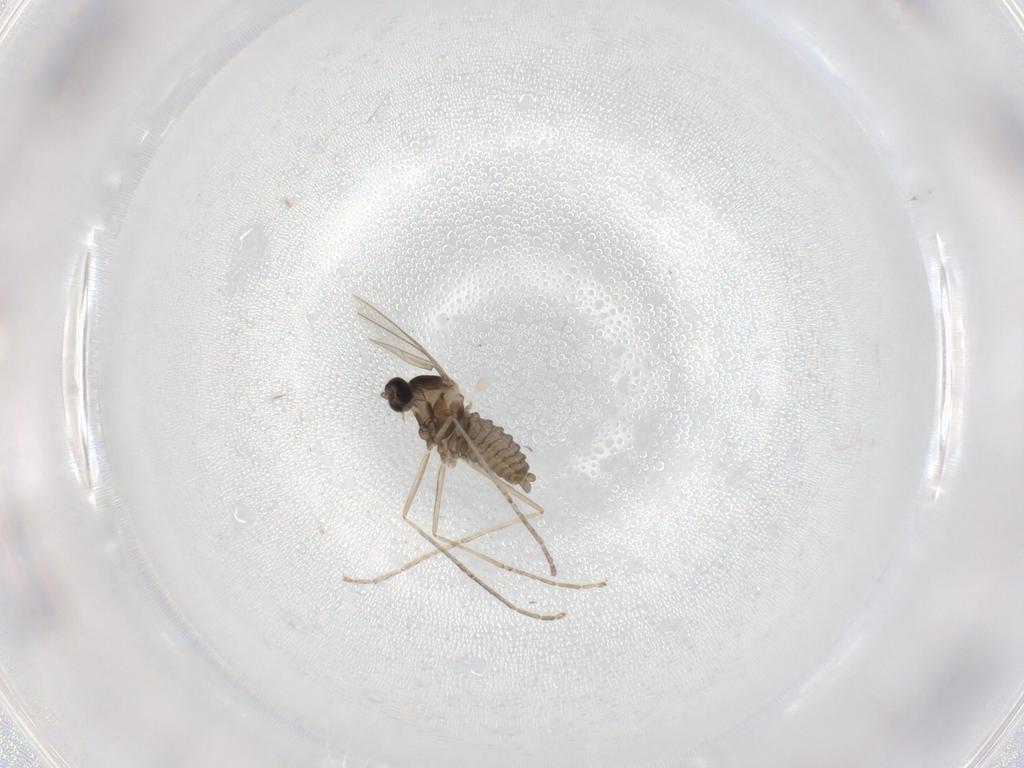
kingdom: Animalia
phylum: Arthropoda
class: Insecta
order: Diptera
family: Cecidomyiidae
